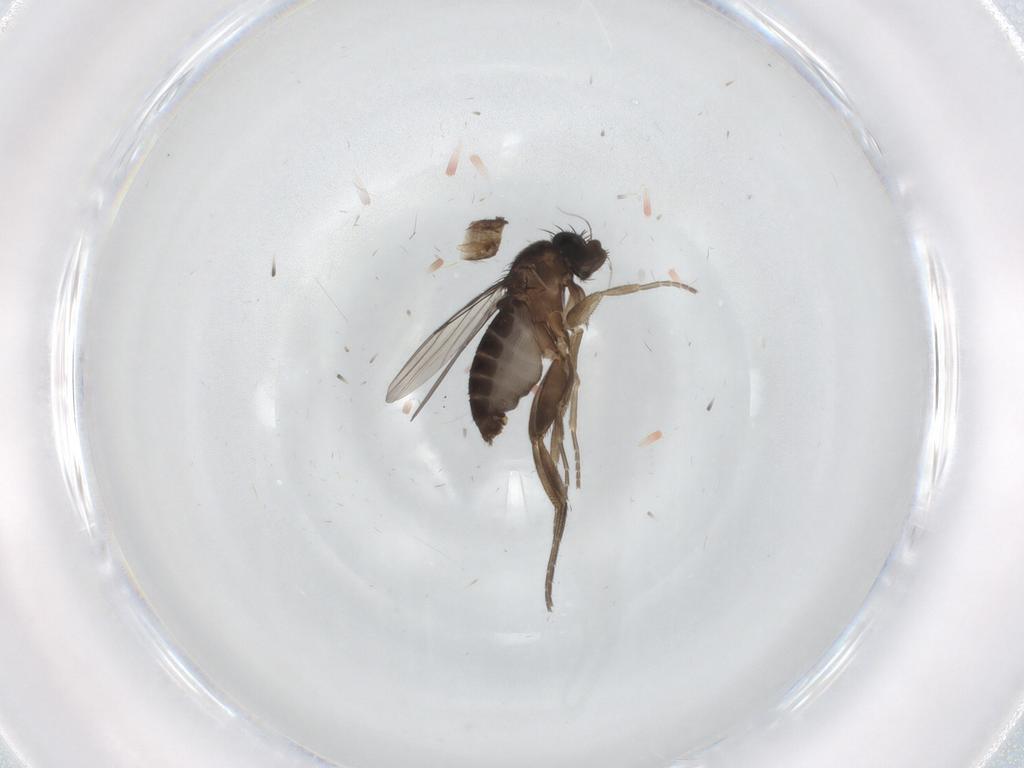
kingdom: Animalia
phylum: Arthropoda
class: Insecta
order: Diptera
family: Phoridae
